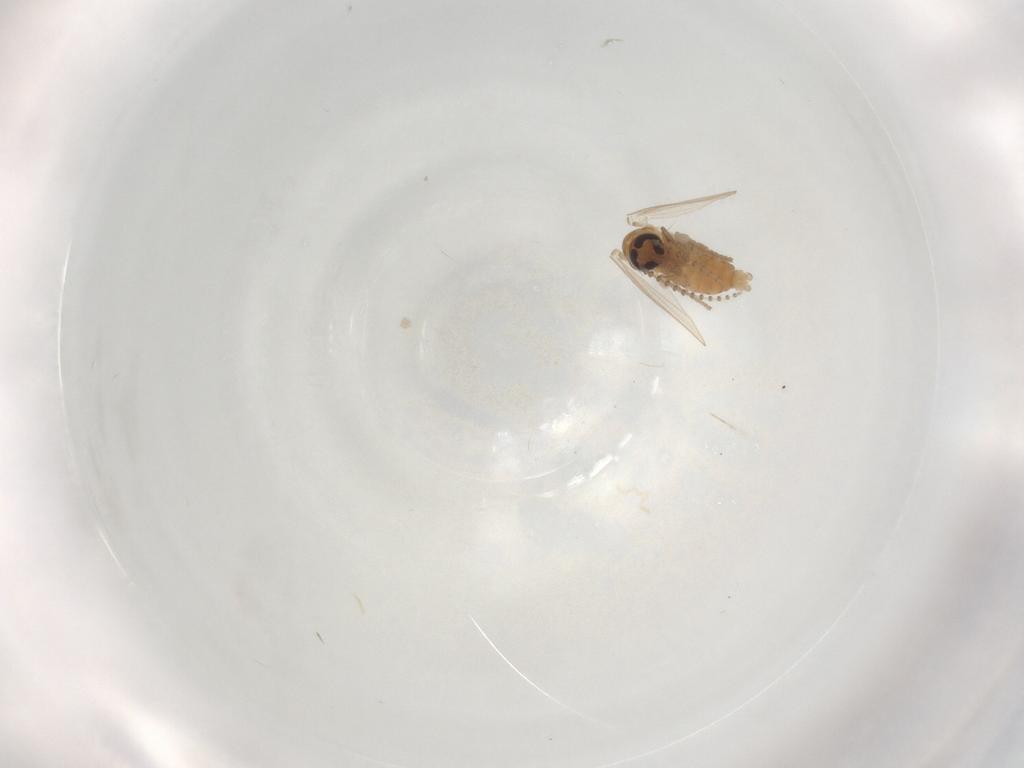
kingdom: Animalia
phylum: Arthropoda
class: Insecta
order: Diptera
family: Psychodidae
